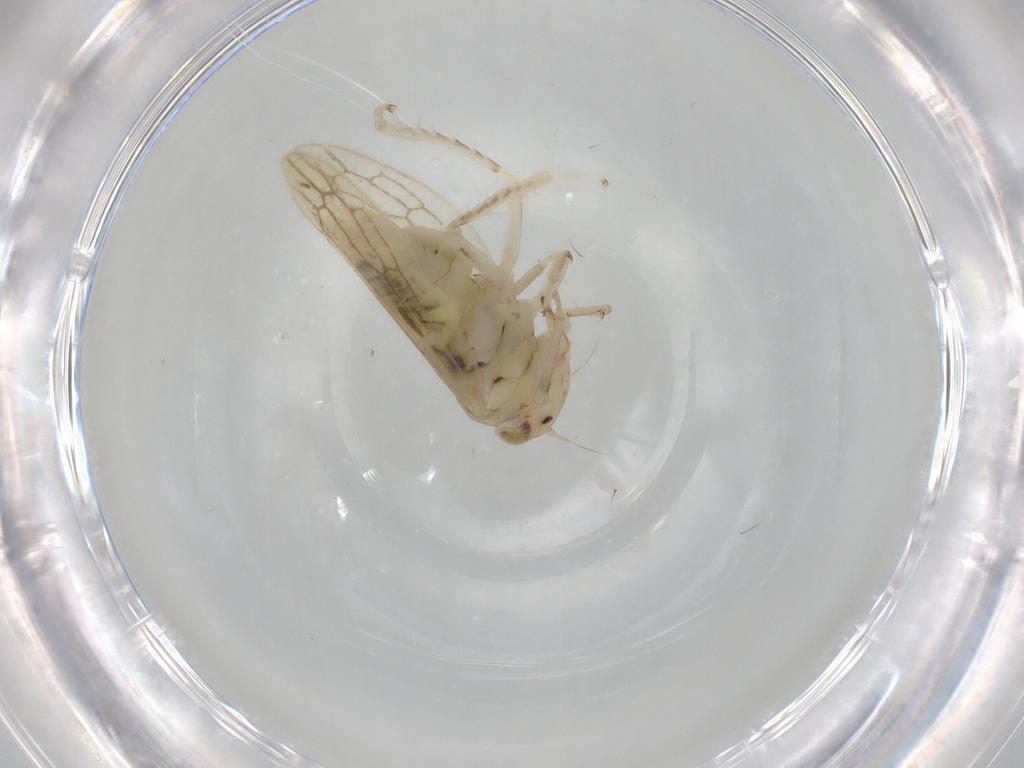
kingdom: Animalia
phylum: Arthropoda
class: Insecta
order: Hemiptera
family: Cicadellidae
